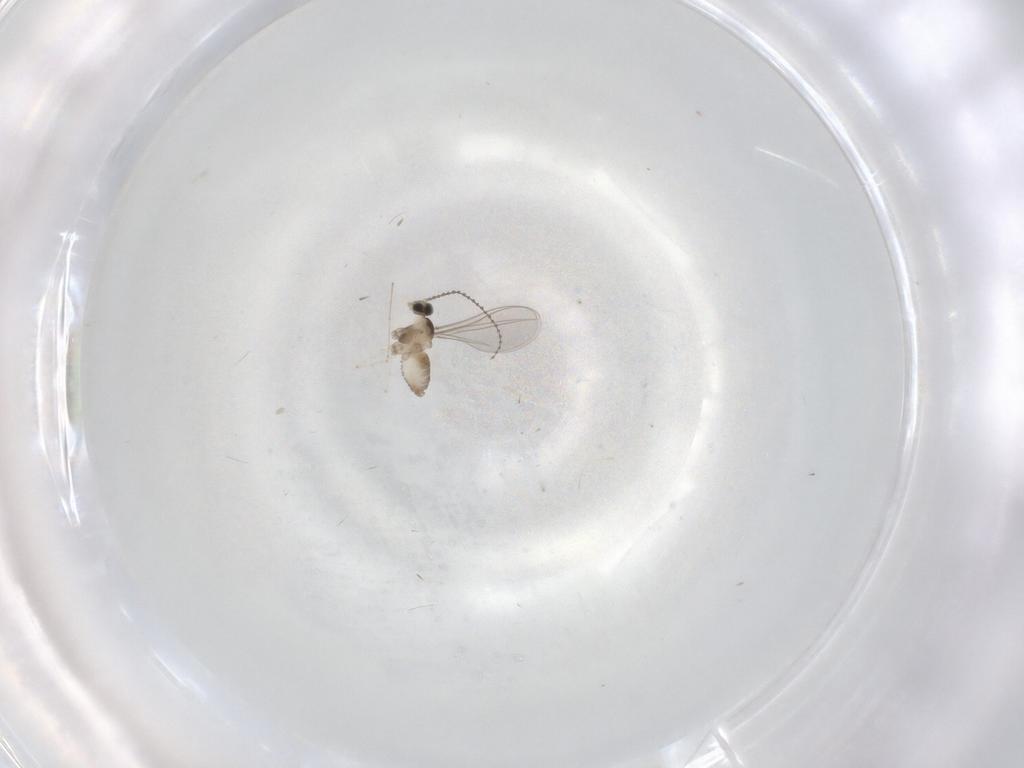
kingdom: Animalia
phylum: Arthropoda
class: Insecta
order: Diptera
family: Cecidomyiidae
